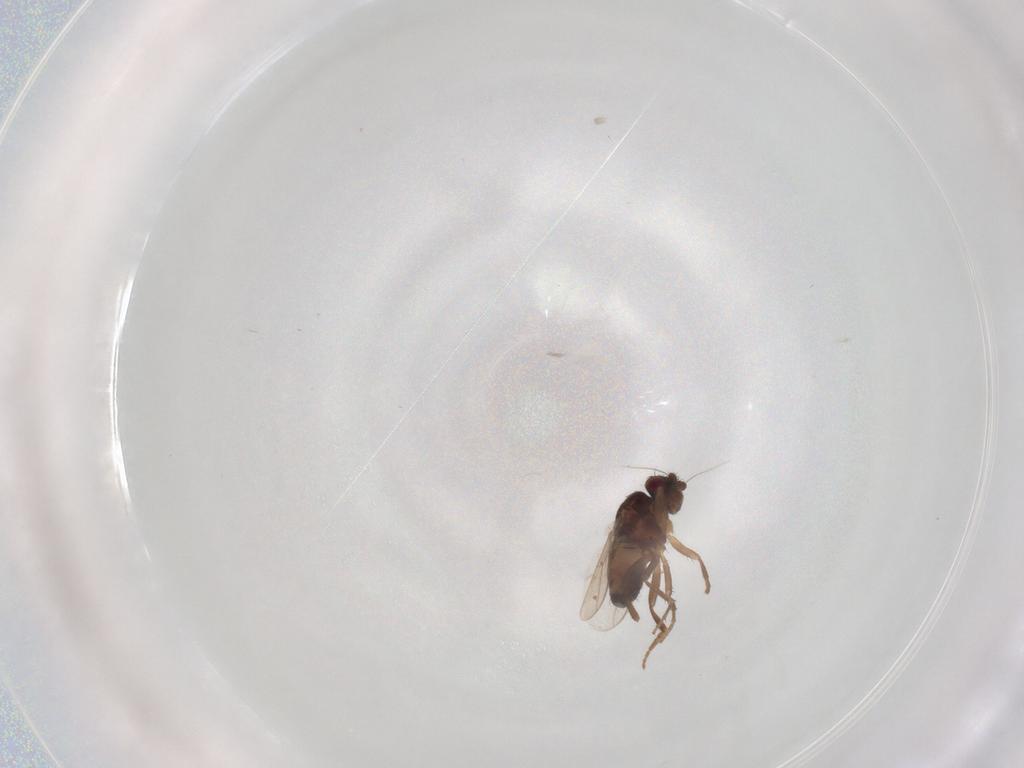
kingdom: Animalia
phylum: Arthropoda
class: Insecta
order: Diptera
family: Sphaeroceridae
